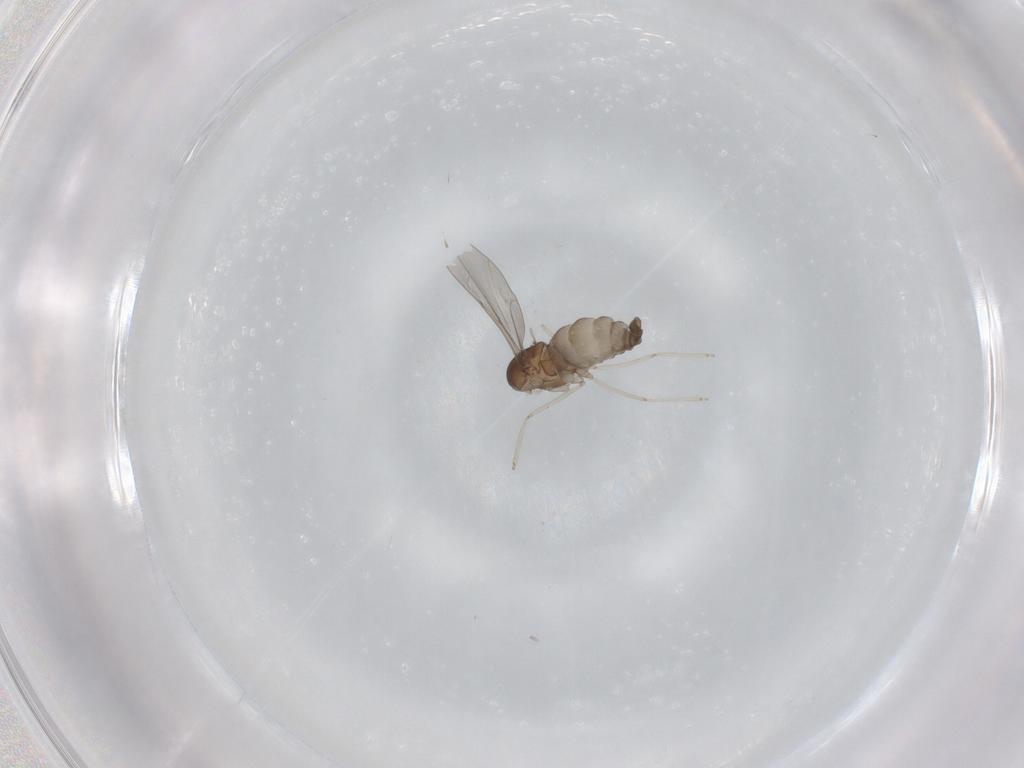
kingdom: Animalia
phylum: Arthropoda
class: Insecta
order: Diptera
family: Cecidomyiidae
